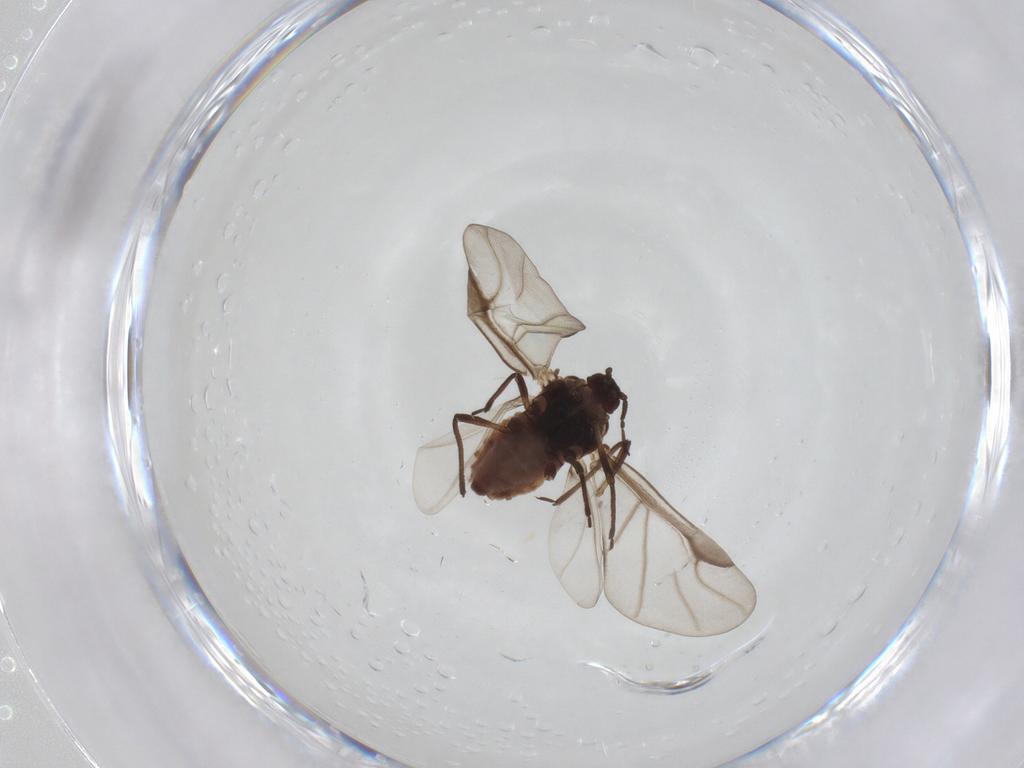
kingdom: Animalia
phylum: Arthropoda
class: Insecta
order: Hemiptera
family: Aphididae
